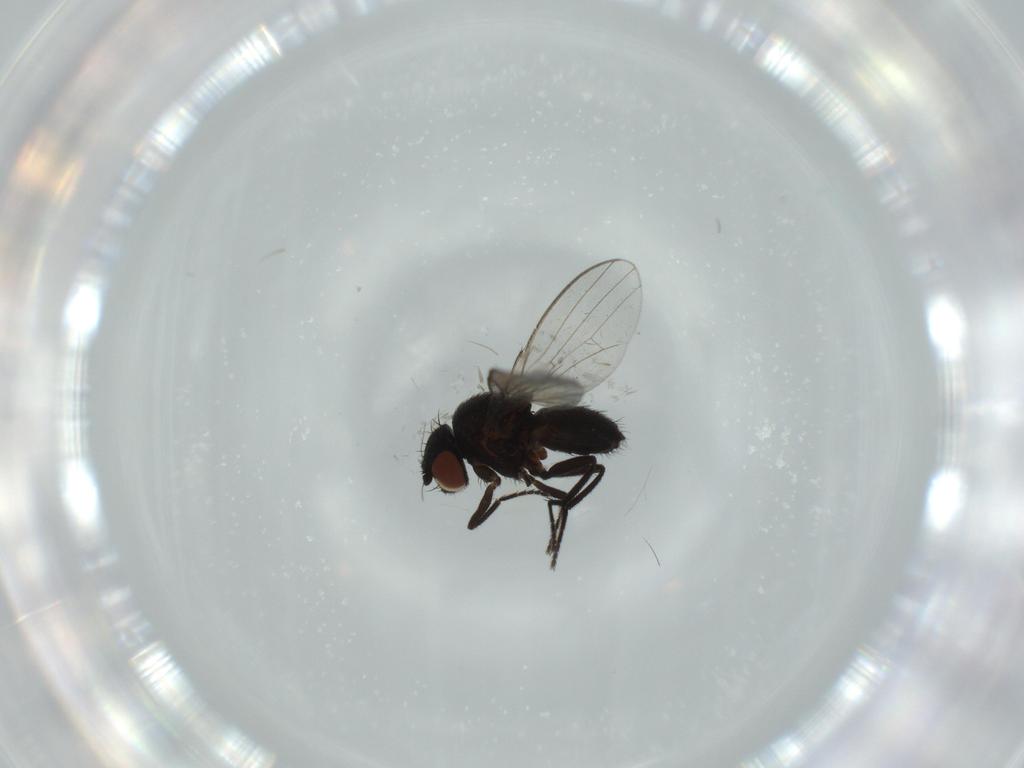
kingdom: Animalia
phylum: Arthropoda
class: Insecta
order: Diptera
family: Milichiidae
